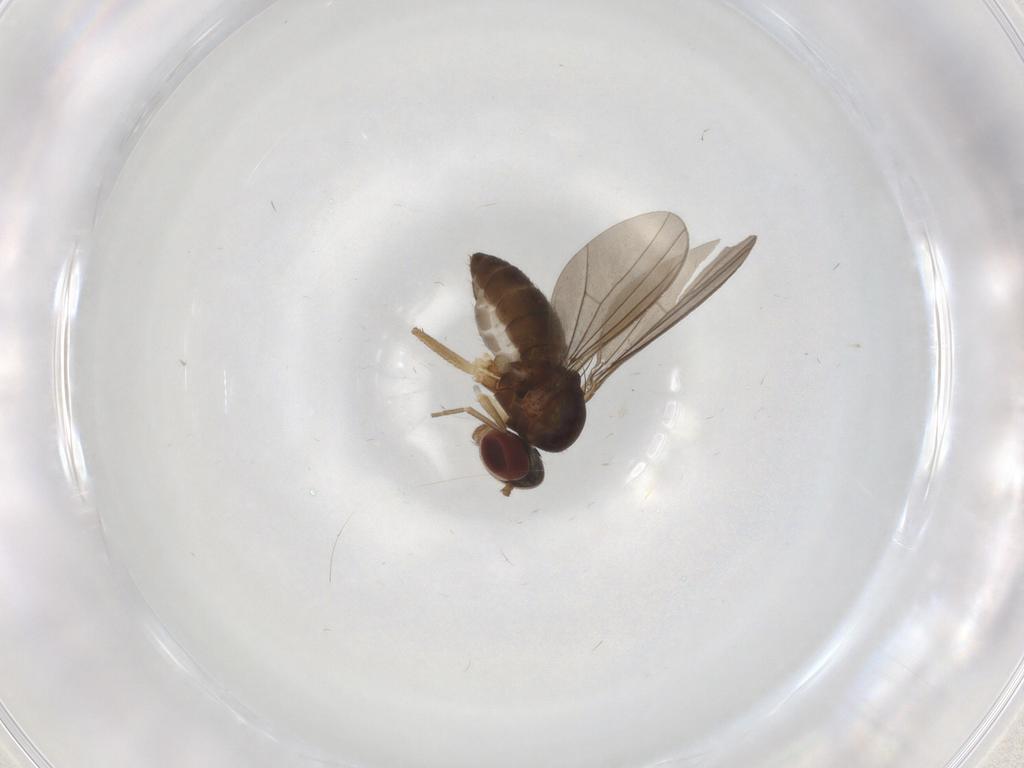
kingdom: Animalia
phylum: Arthropoda
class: Insecta
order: Diptera
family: Dolichopodidae
